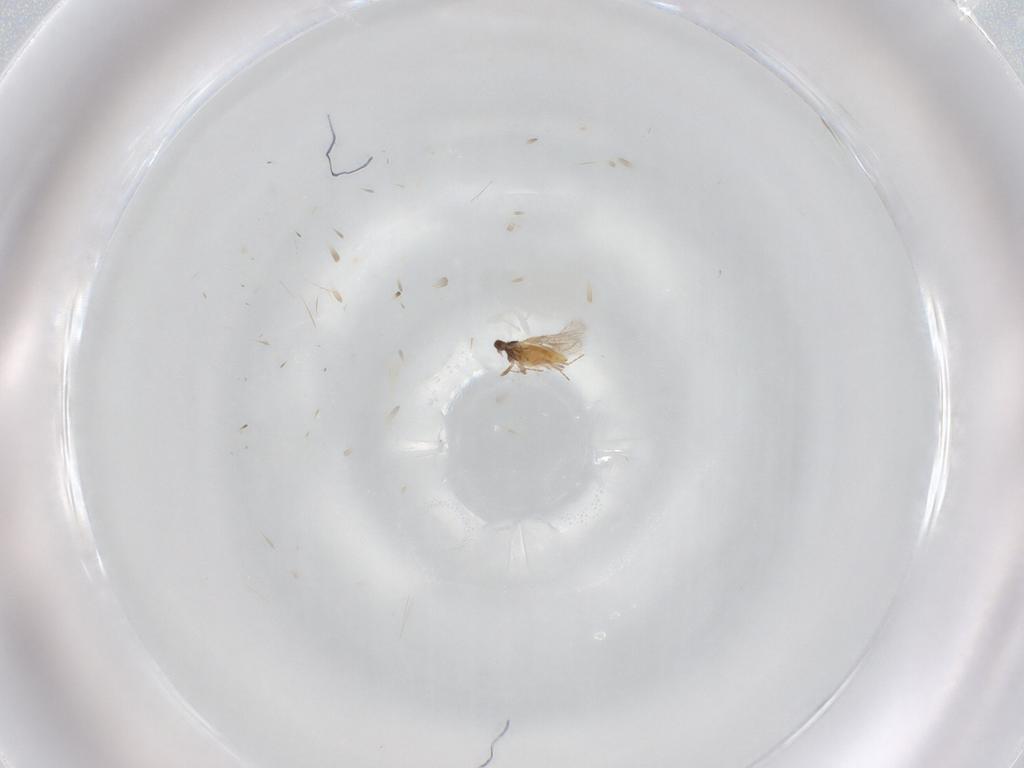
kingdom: Animalia
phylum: Arthropoda
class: Insecta
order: Hymenoptera
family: Trichogrammatidae
